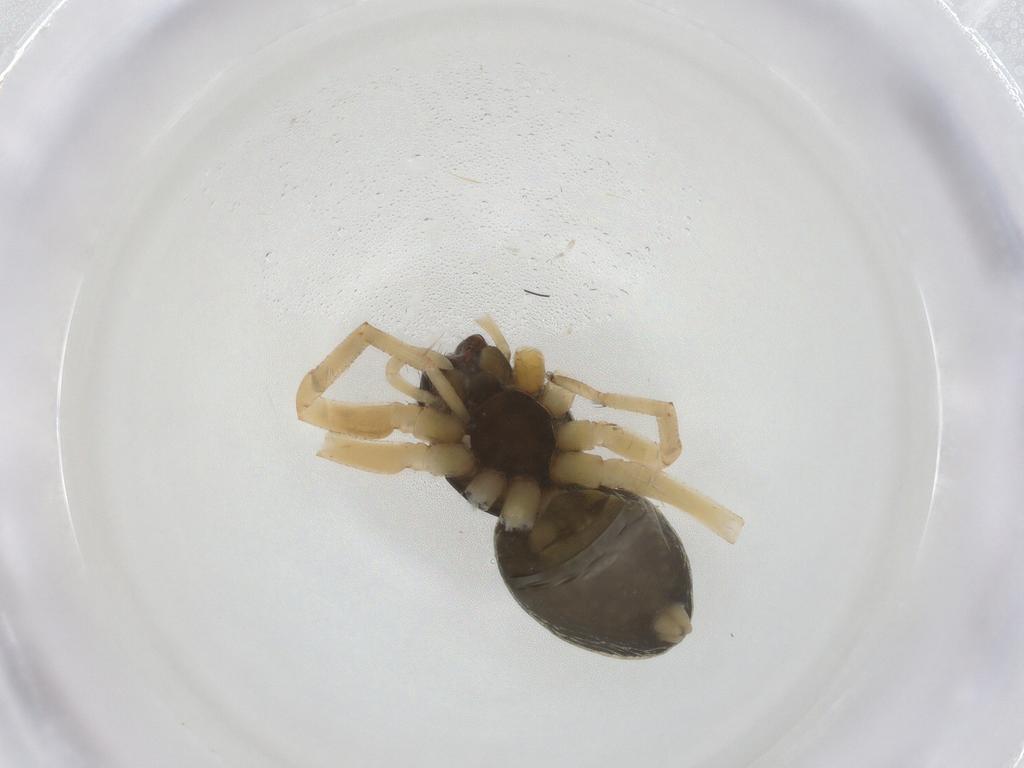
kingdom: Animalia
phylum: Arthropoda
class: Arachnida
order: Araneae
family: Trachelidae
